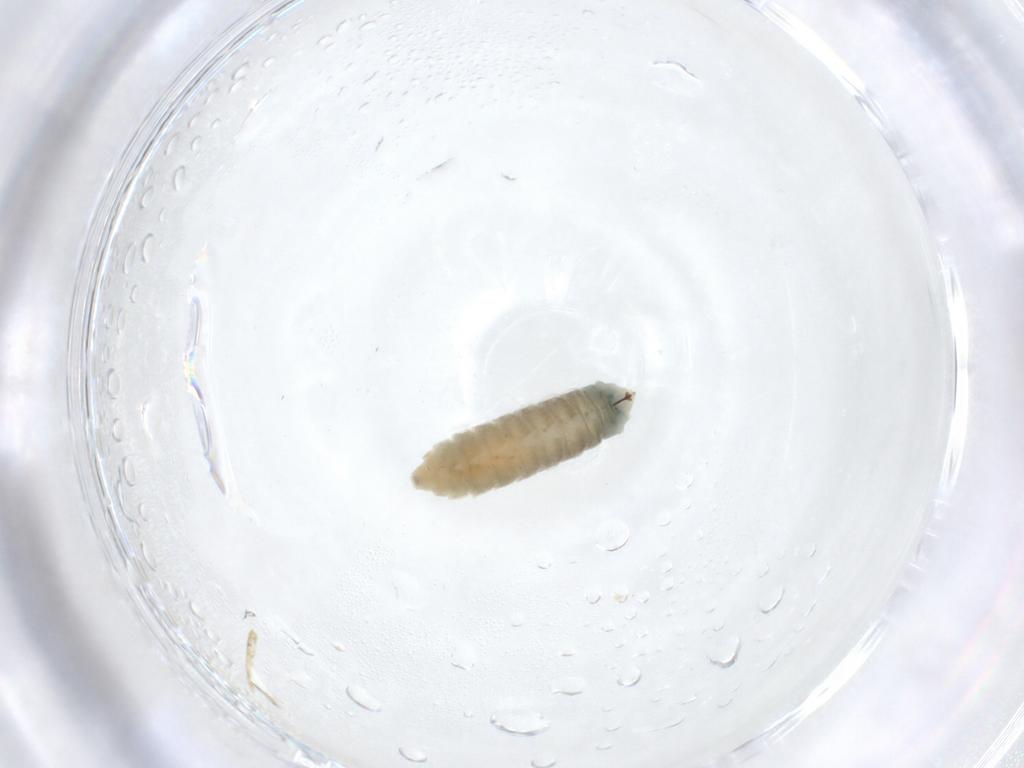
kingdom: Animalia
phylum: Arthropoda
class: Insecta
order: Diptera
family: Cecidomyiidae
